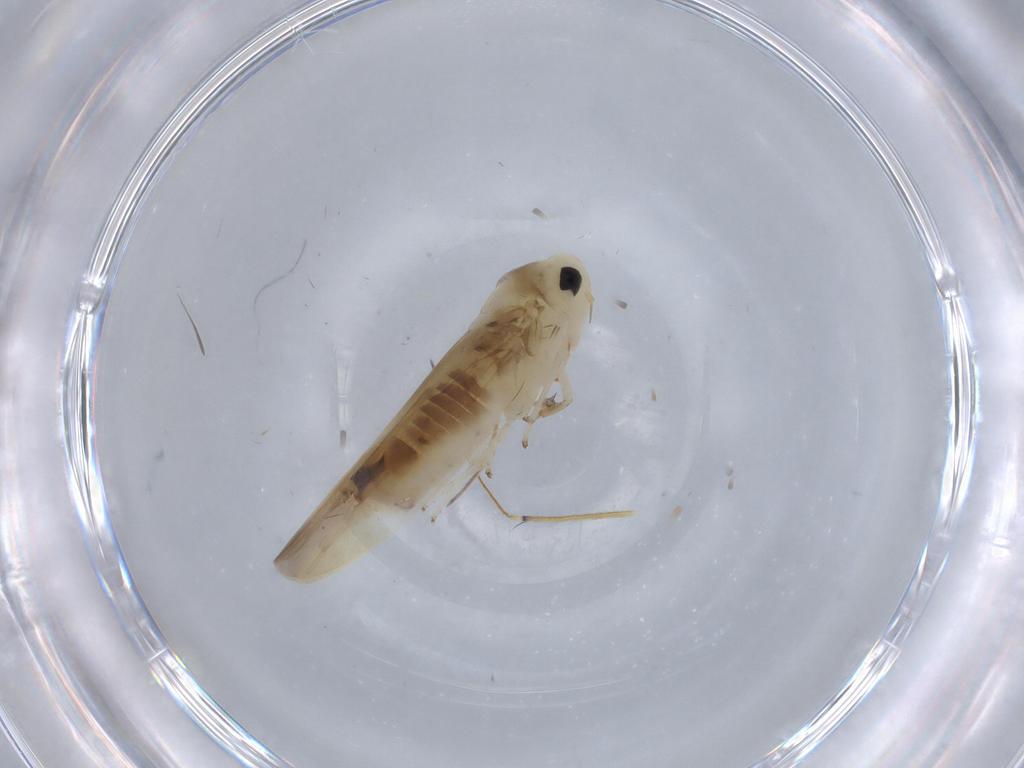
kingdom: Animalia
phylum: Arthropoda
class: Insecta
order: Hemiptera
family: Cicadellidae
